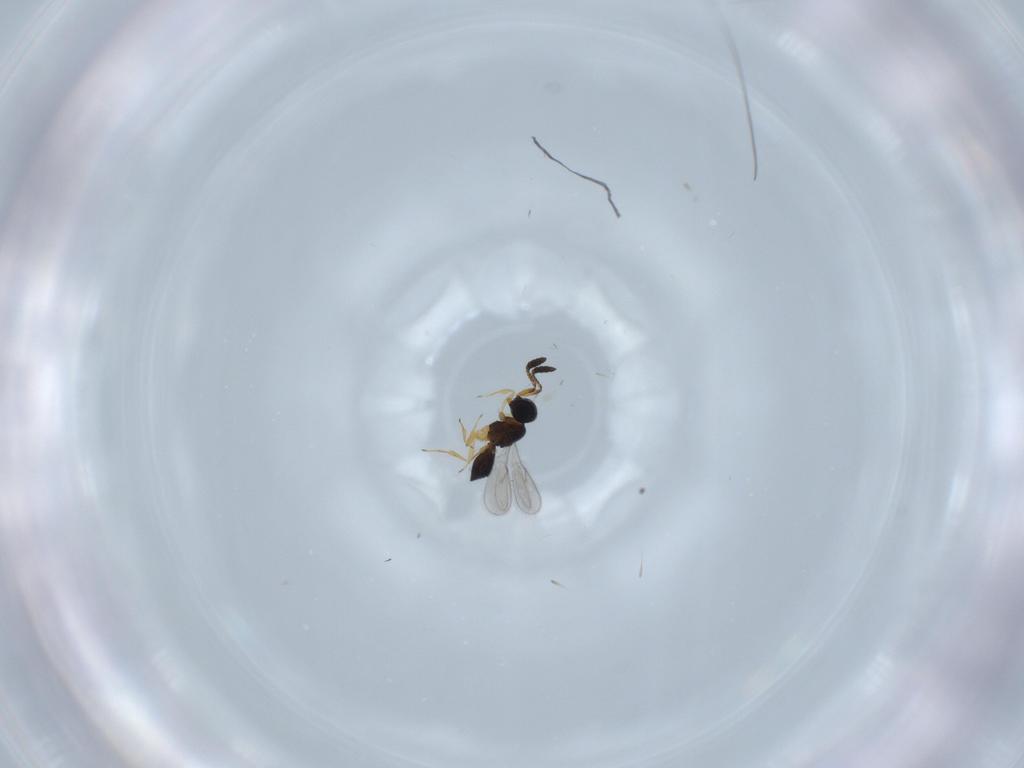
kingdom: Animalia
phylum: Arthropoda
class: Insecta
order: Hymenoptera
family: Scelionidae
